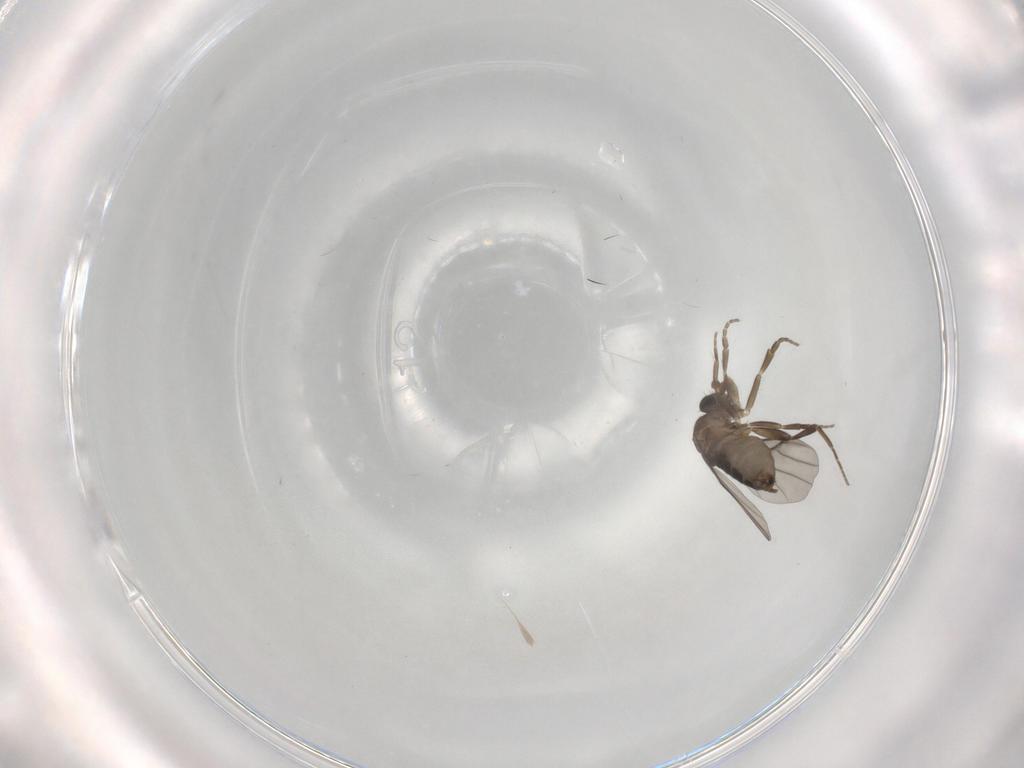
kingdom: Animalia
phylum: Arthropoda
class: Insecta
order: Diptera
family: Phoridae
